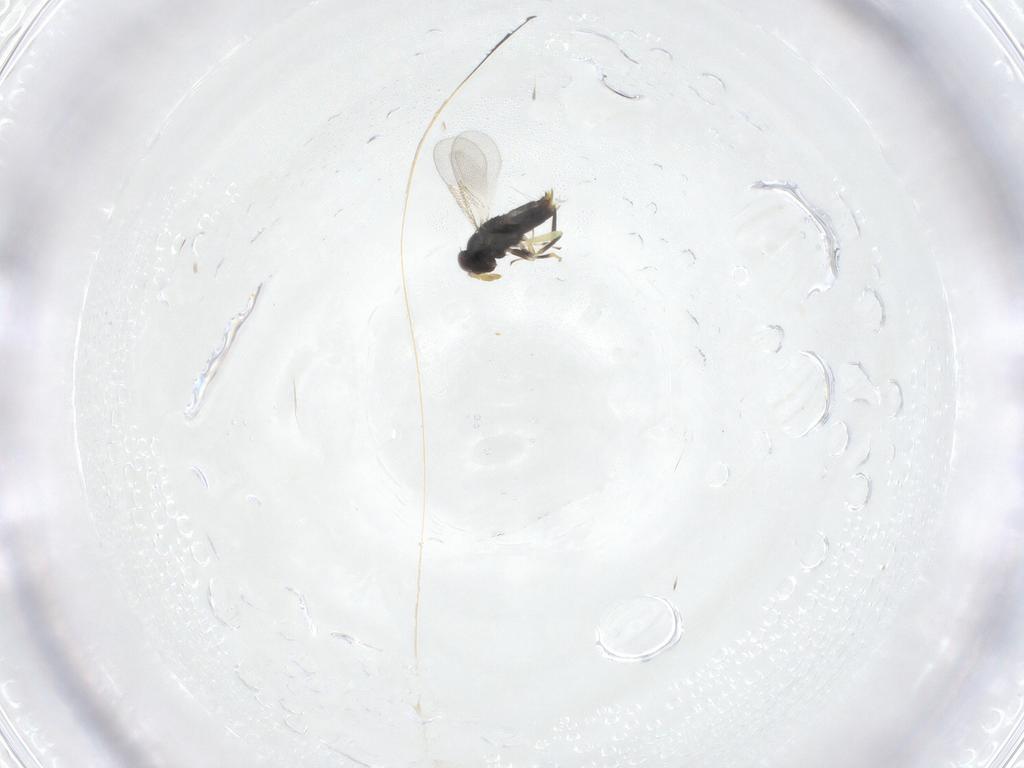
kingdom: Animalia
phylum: Arthropoda
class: Insecta
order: Hymenoptera
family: Aphelinidae
